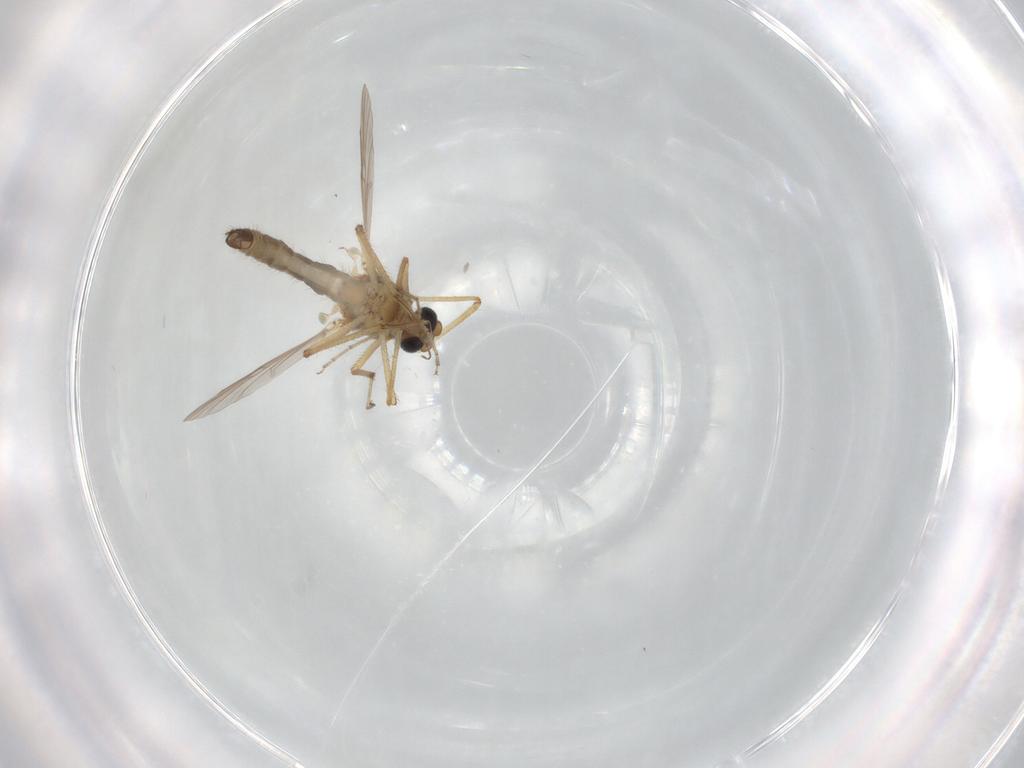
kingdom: Animalia
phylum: Arthropoda
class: Insecta
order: Diptera
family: Ceratopogonidae
